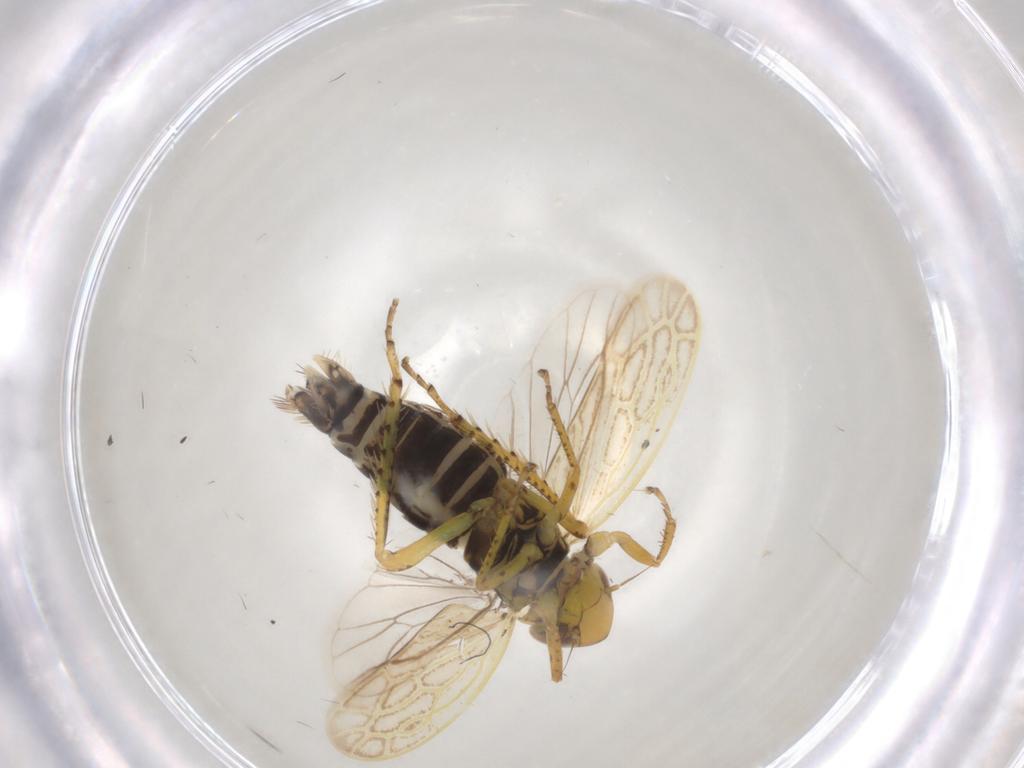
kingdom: Animalia
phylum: Arthropoda
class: Insecta
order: Hemiptera
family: Cicadellidae
